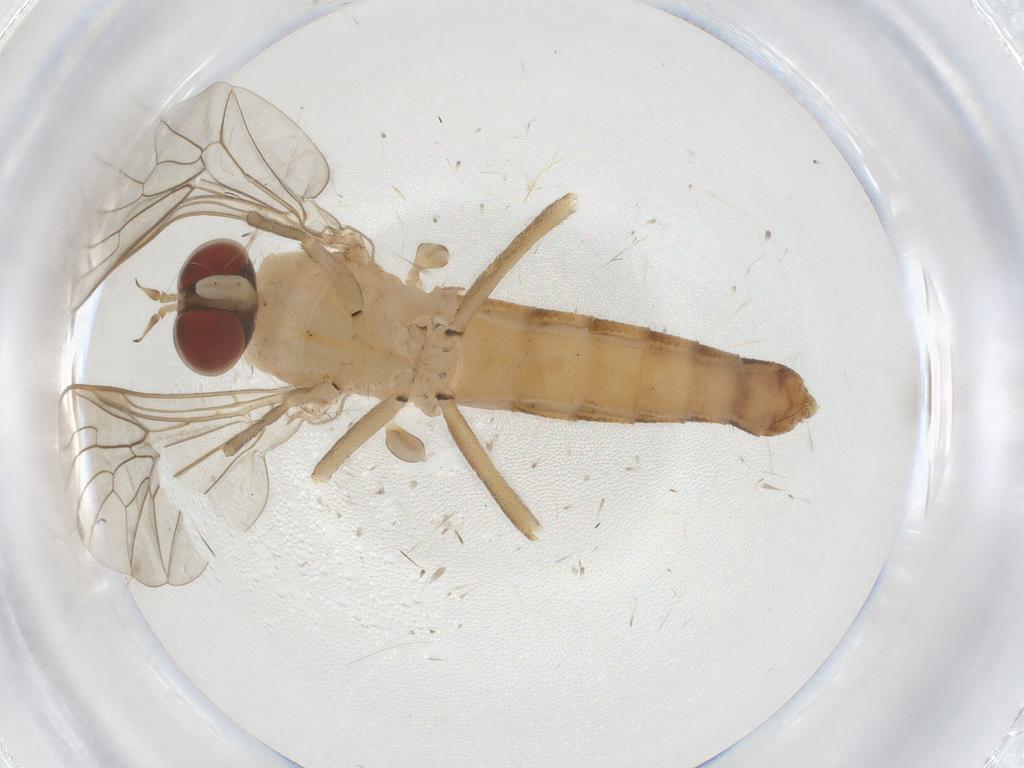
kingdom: Animalia
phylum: Arthropoda
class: Insecta
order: Diptera
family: Apsilocephalidae
